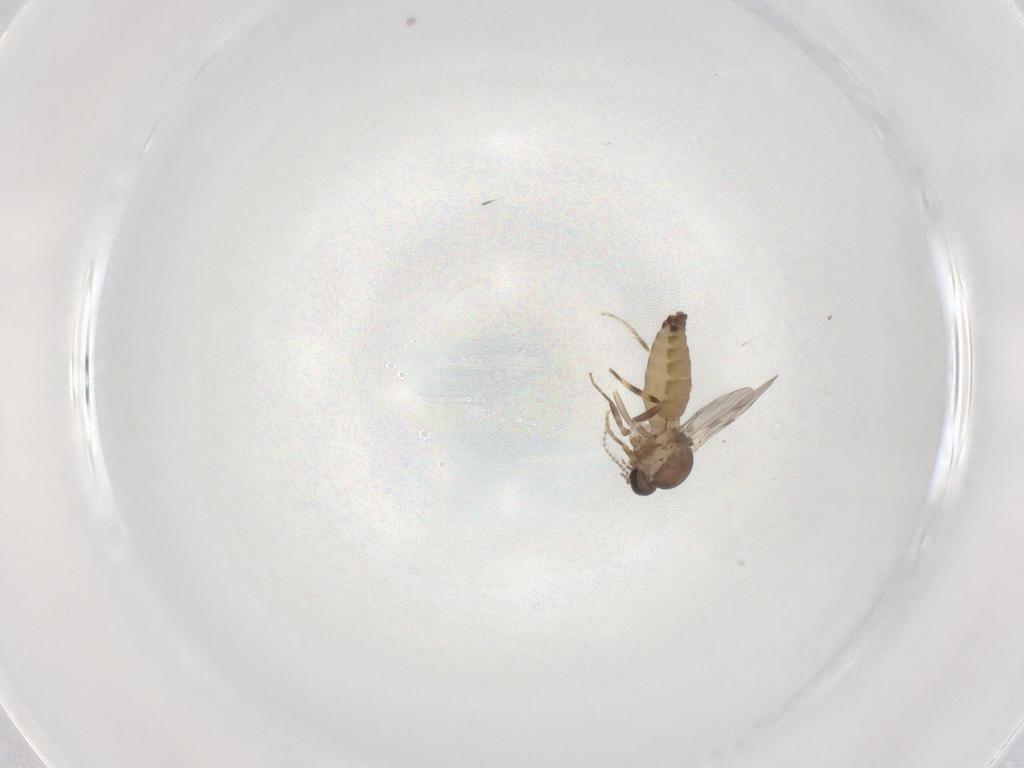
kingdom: Animalia
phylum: Arthropoda
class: Insecta
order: Diptera
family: Ceratopogonidae
